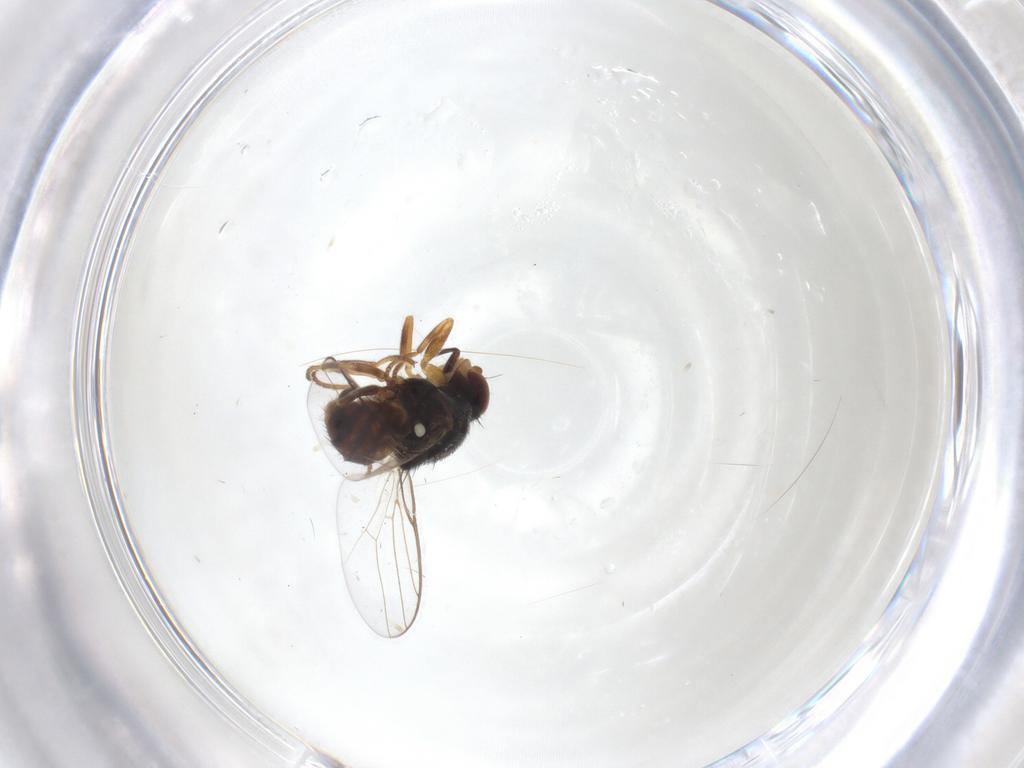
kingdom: Animalia
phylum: Arthropoda
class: Insecta
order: Diptera
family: Chloropidae
